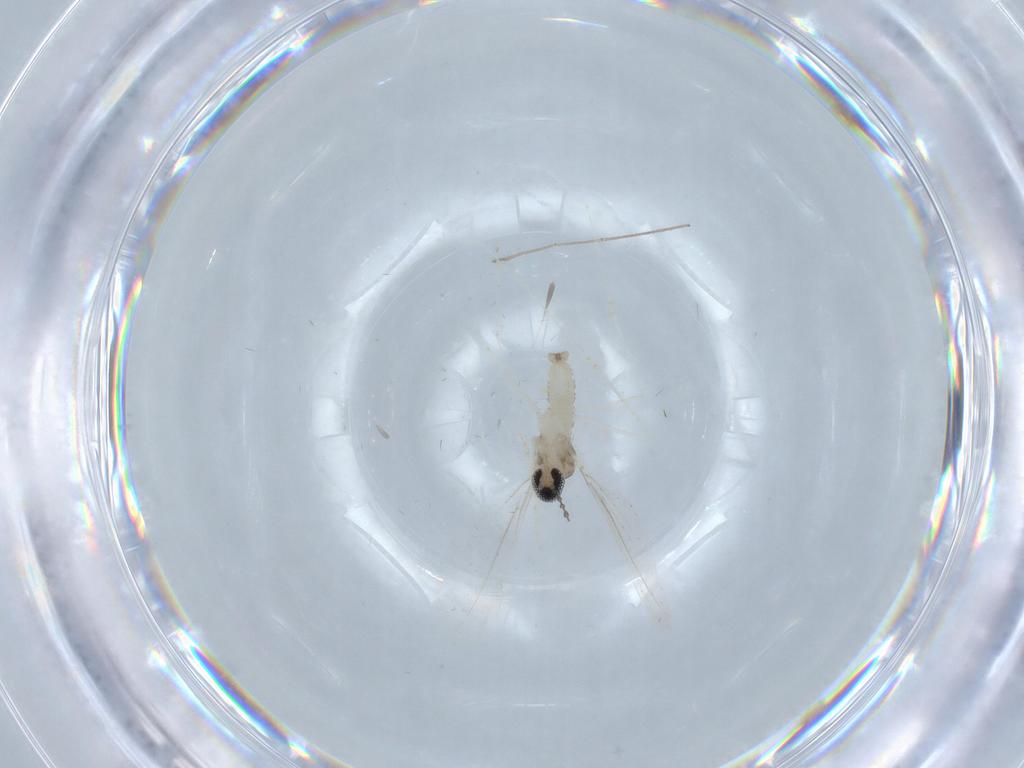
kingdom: Animalia
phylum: Arthropoda
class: Insecta
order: Diptera
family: Cecidomyiidae
